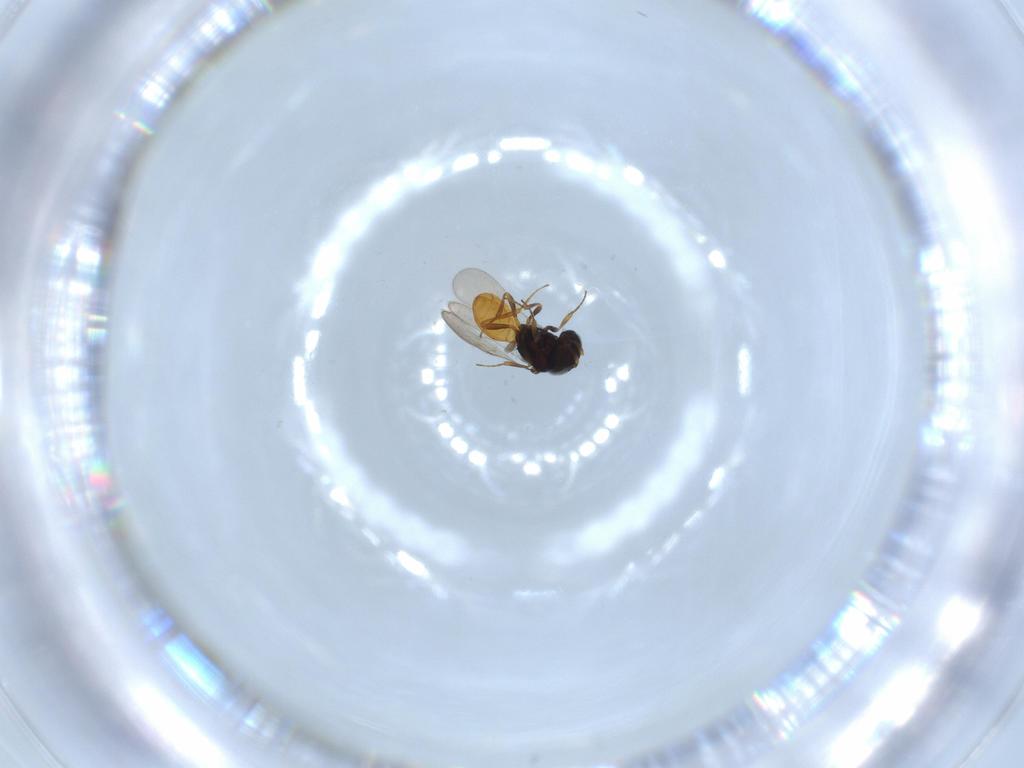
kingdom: Animalia
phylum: Arthropoda
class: Insecta
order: Hymenoptera
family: Scelionidae
